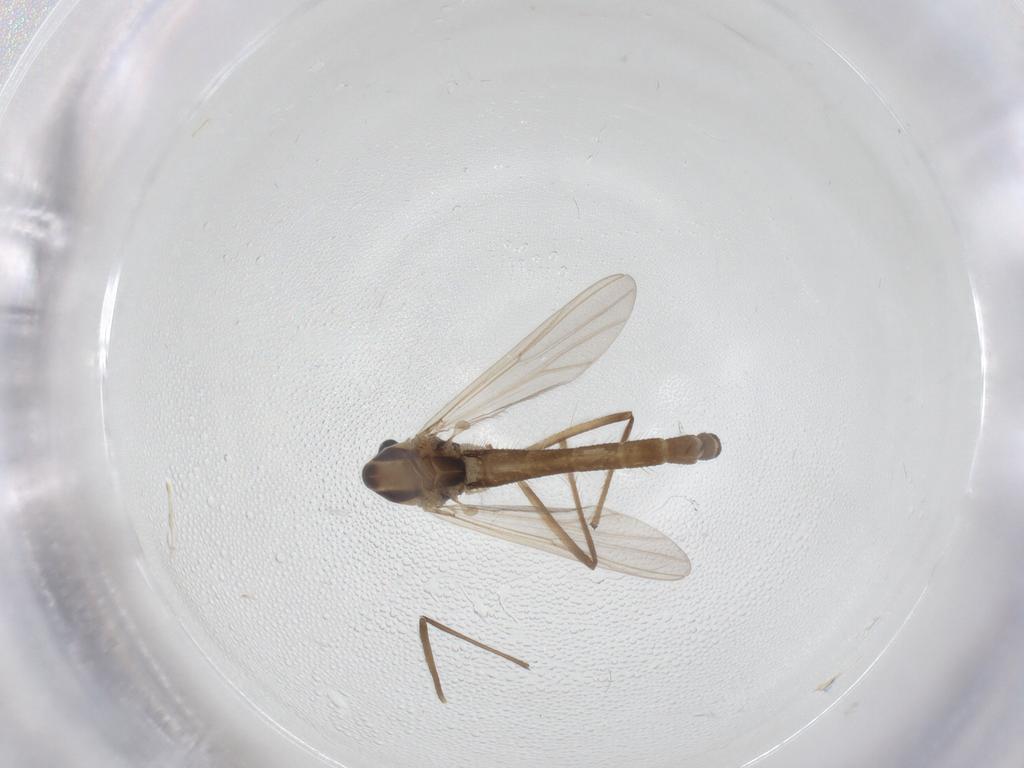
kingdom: Animalia
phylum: Arthropoda
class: Insecta
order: Diptera
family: Chironomidae
